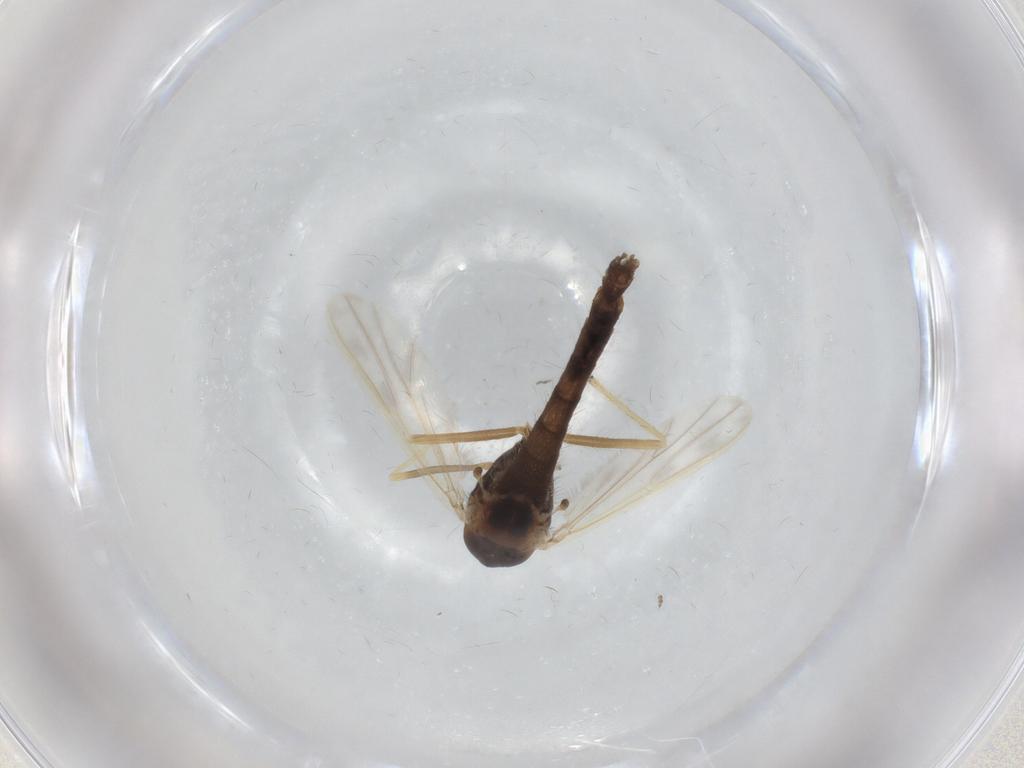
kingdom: Animalia
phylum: Arthropoda
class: Insecta
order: Diptera
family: Chironomidae
